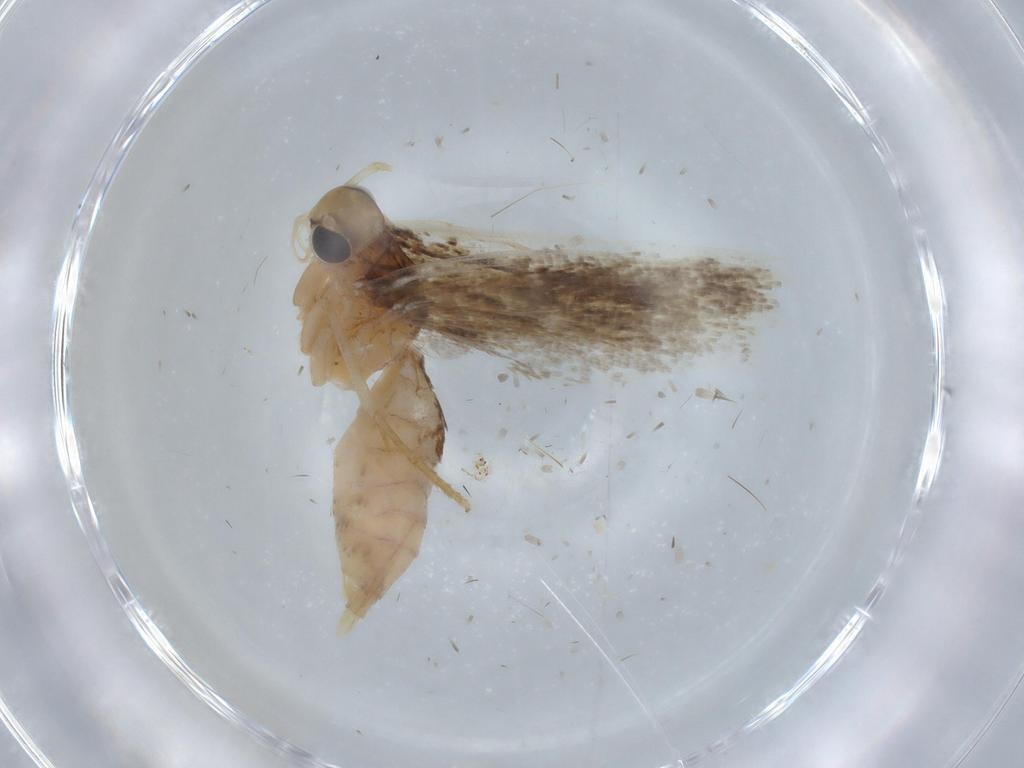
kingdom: Animalia
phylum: Arthropoda
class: Insecta
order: Lepidoptera
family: Gelechiidae
